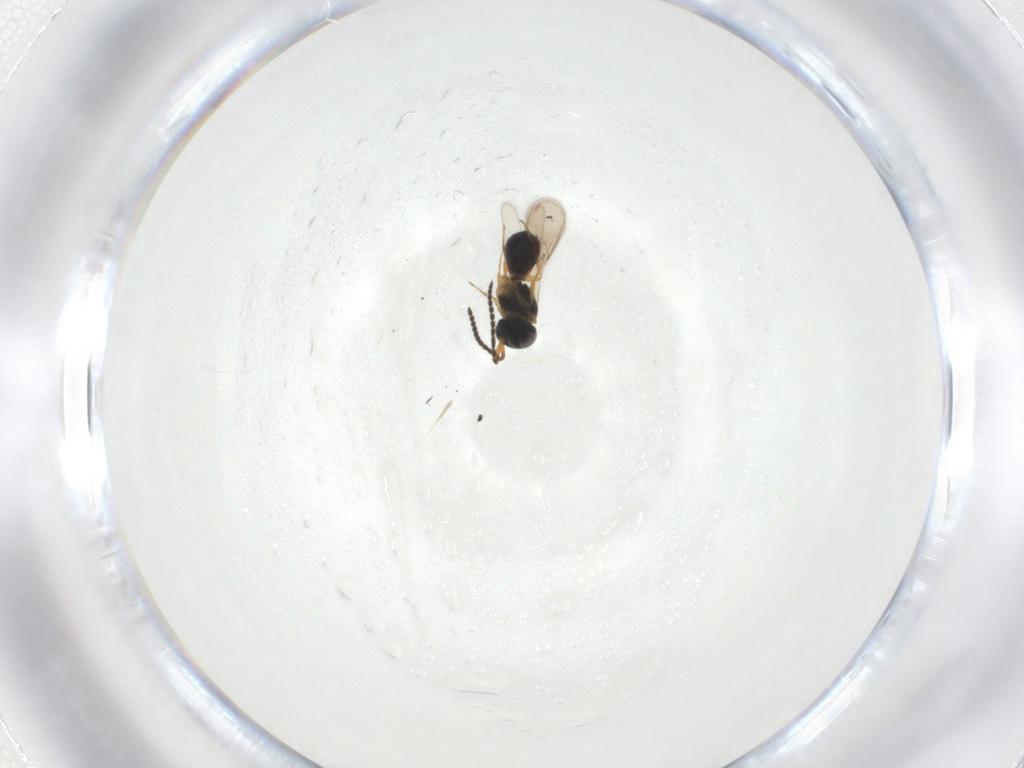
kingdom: Animalia
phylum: Arthropoda
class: Insecta
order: Hymenoptera
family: Scelionidae
